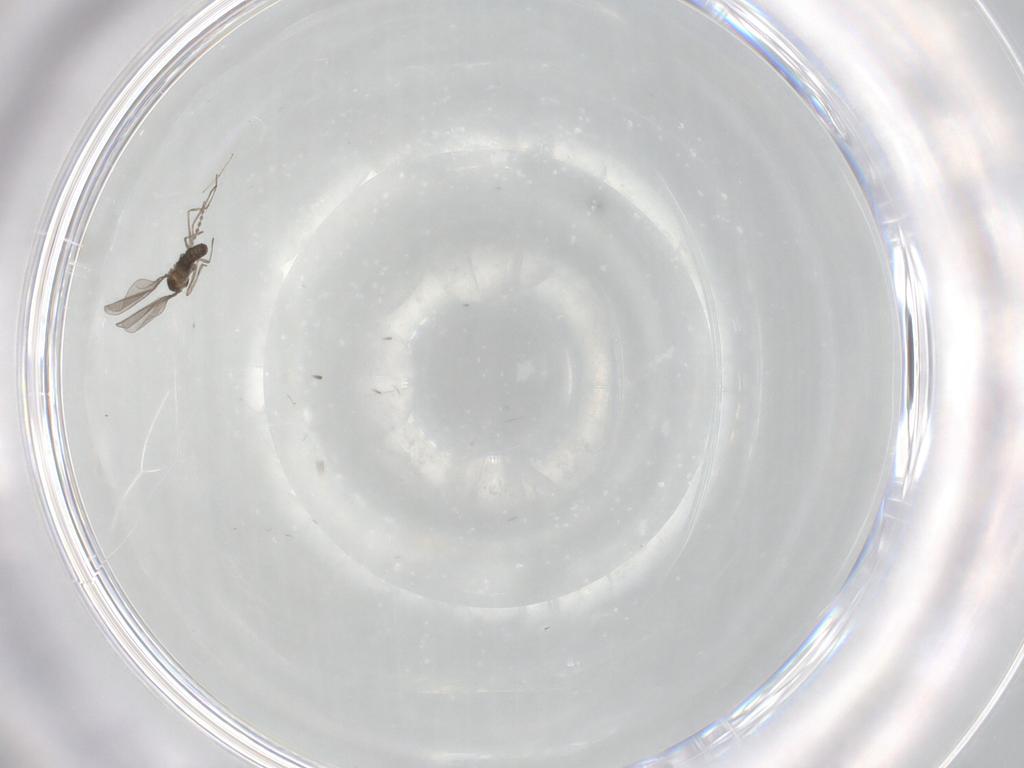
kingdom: Animalia
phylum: Arthropoda
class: Insecta
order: Diptera
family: Cecidomyiidae
